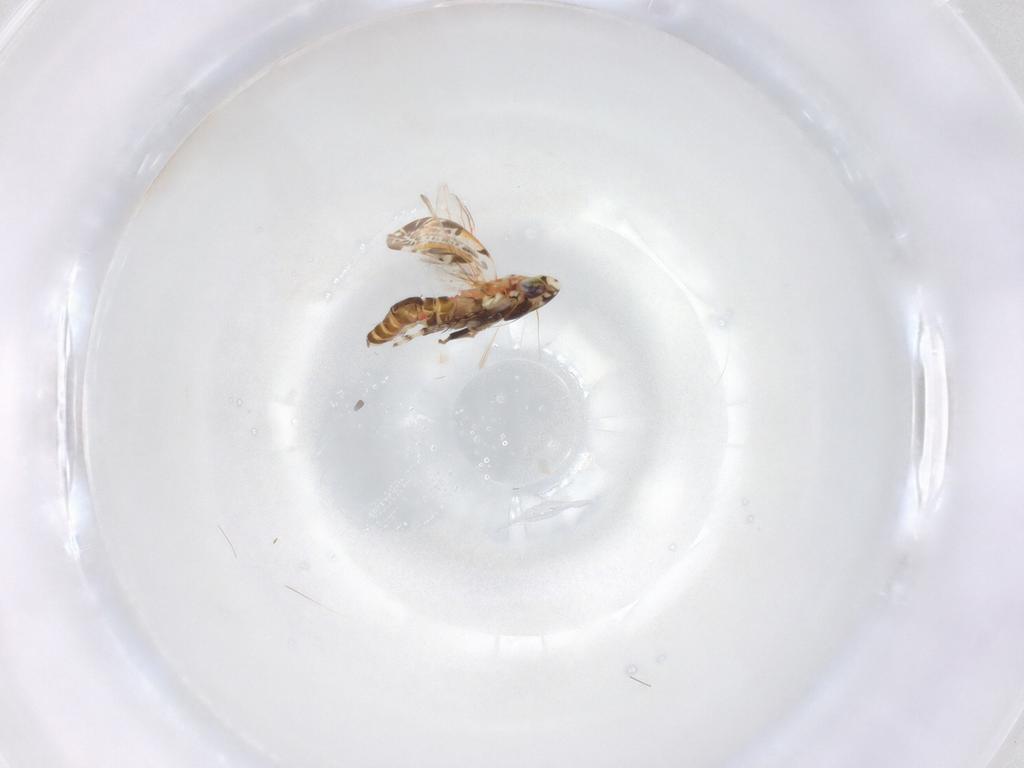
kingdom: Animalia
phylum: Arthropoda
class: Insecta
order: Hemiptera
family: Cicadellidae
